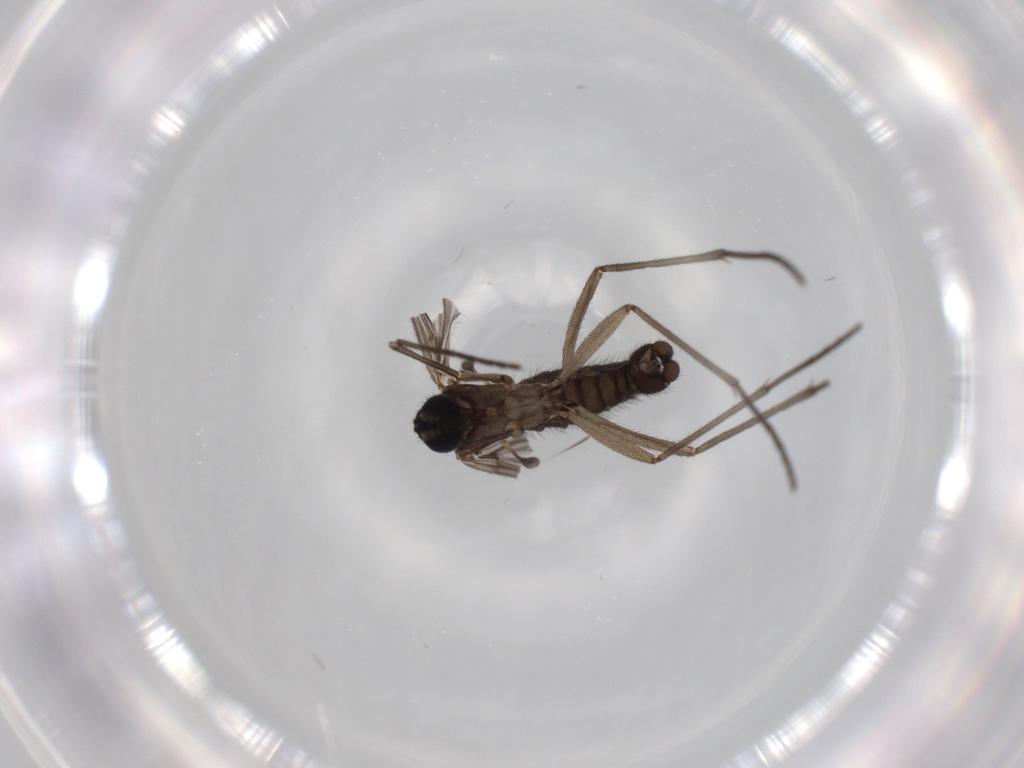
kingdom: Animalia
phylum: Arthropoda
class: Insecta
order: Diptera
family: Sciaridae
